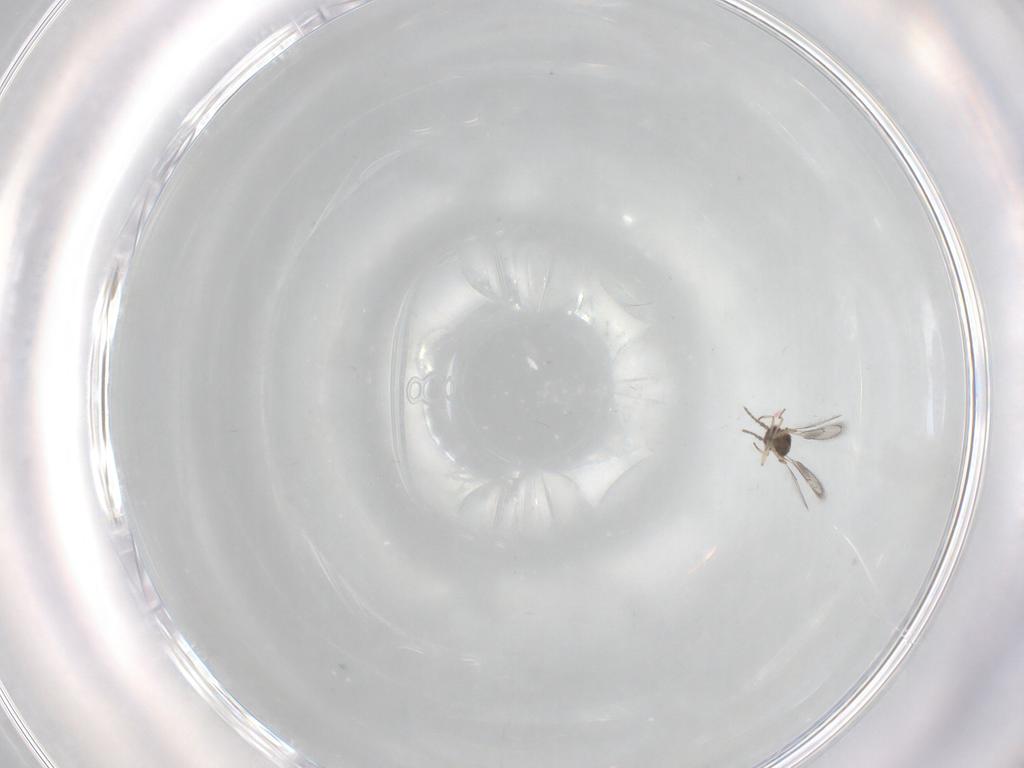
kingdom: Animalia
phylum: Arthropoda
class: Insecta
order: Hymenoptera
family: Eulophidae
